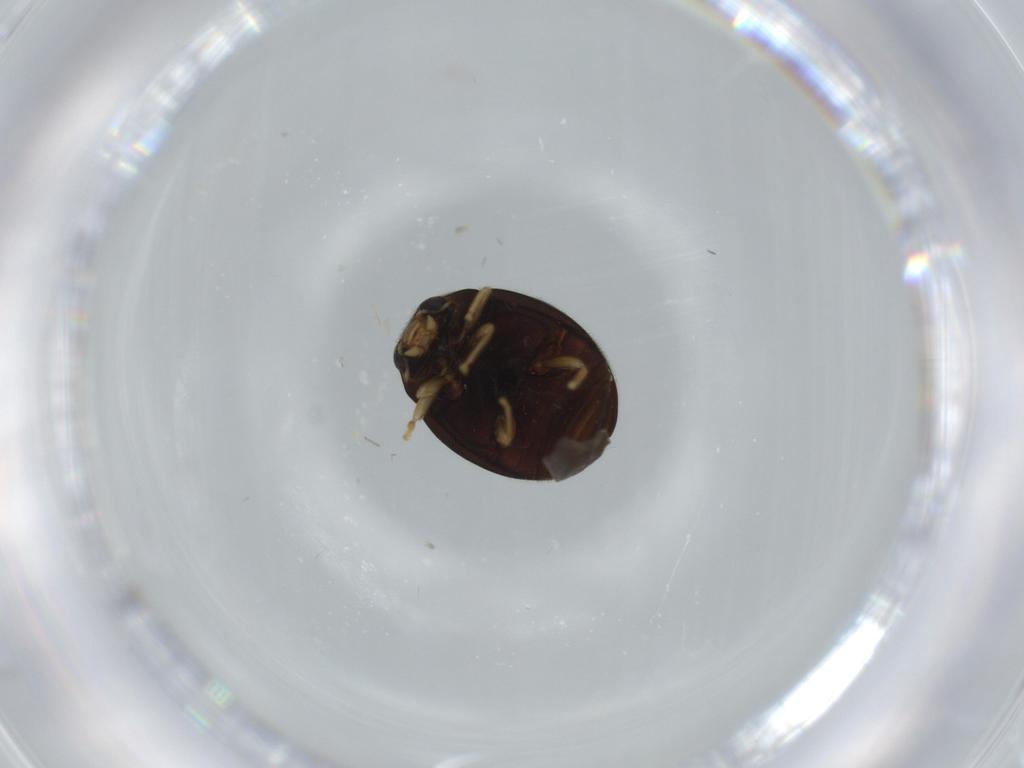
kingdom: Animalia
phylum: Arthropoda
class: Insecta
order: Coleoptera
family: Coccinellidae
